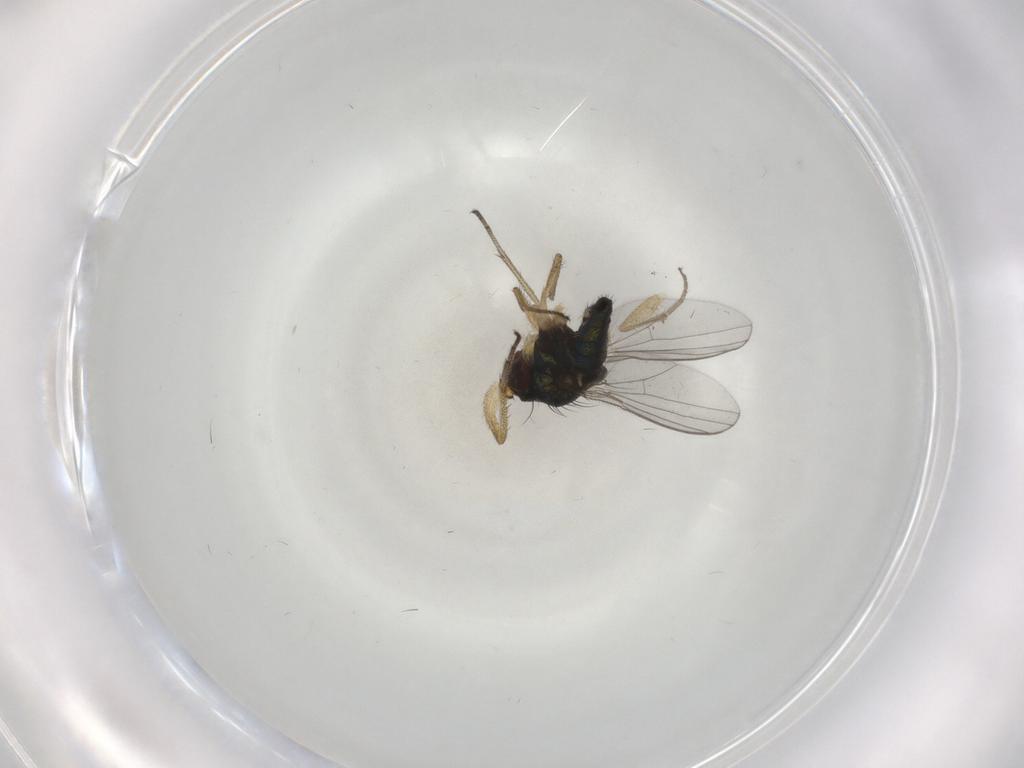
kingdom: Animalia
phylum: Arthropoda
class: Insecta
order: Diptera
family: Dolichopodidae
